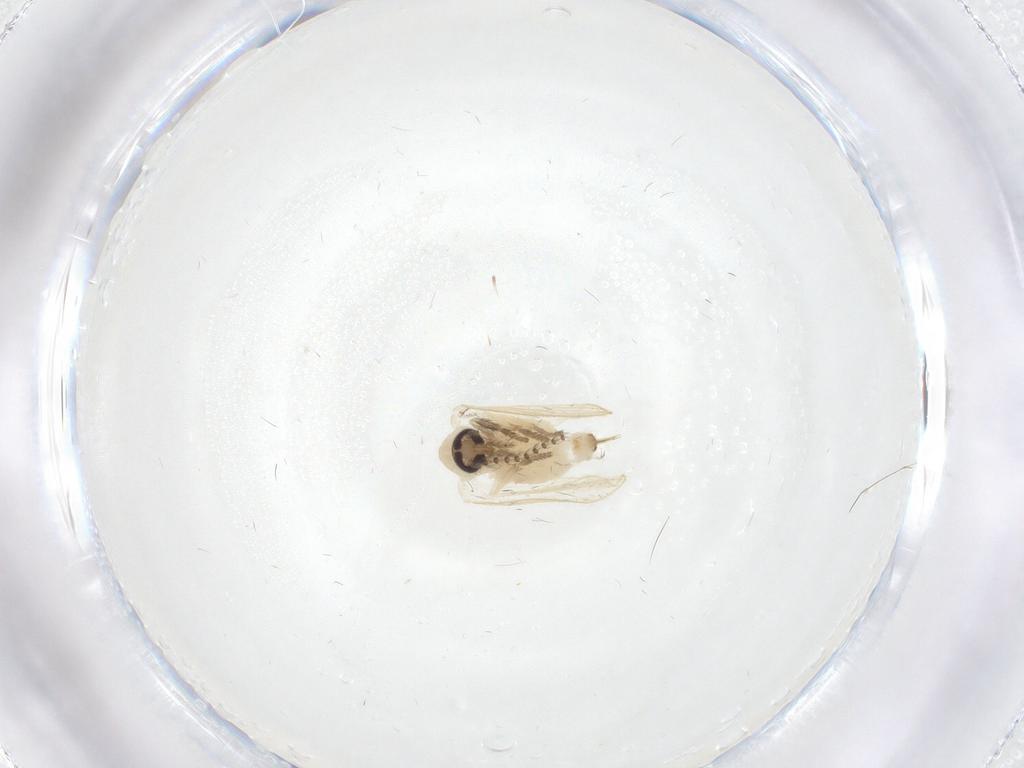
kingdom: Animalia
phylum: Arthropoda
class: Insecta
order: Diptera
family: Psychodidae
